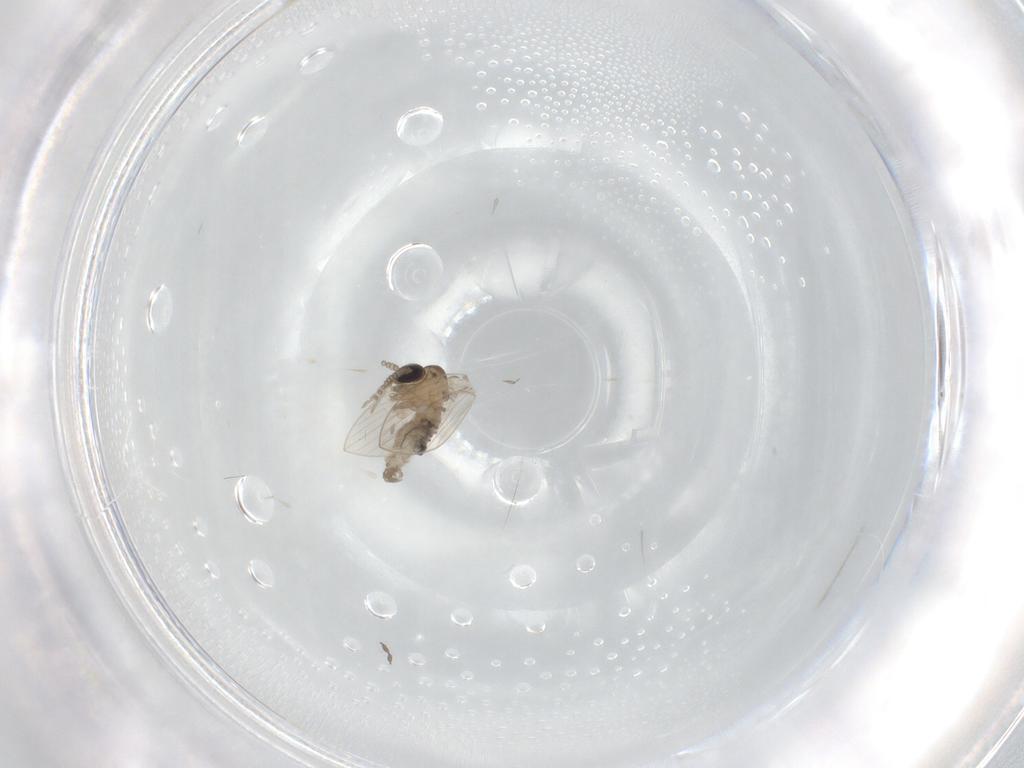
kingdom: Animalia
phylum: Arthropoda
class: Insecta
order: Diptera
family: Psychodidae
